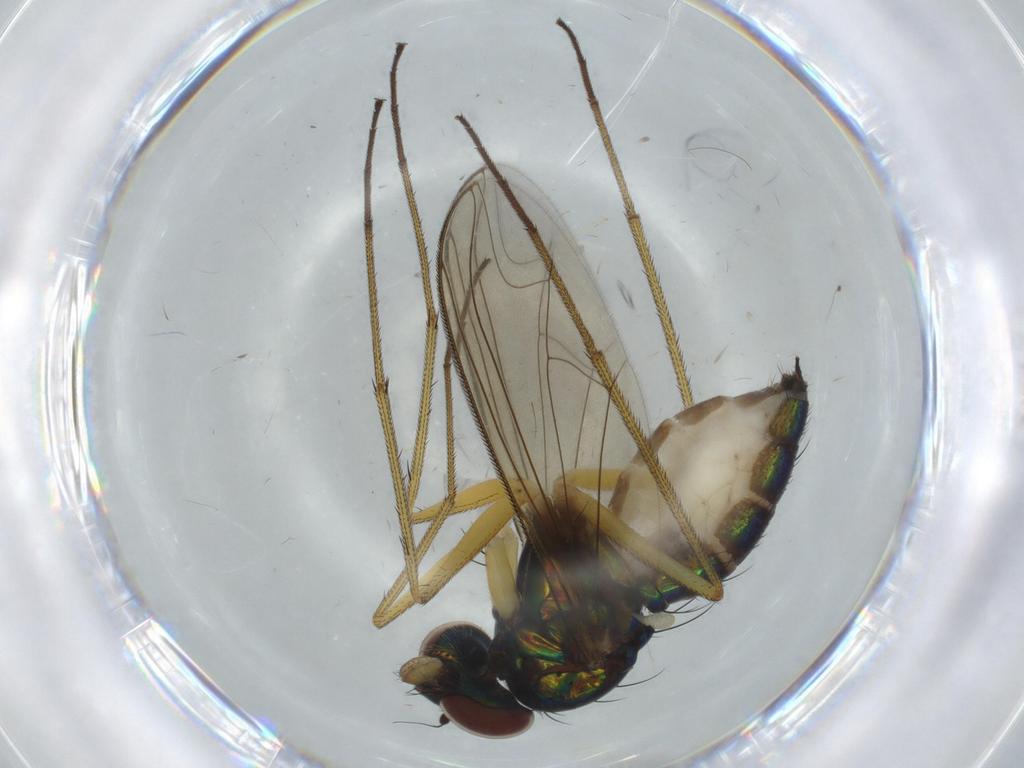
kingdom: Animalia
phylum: Arthropoda
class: Insecta
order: Diptera
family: Dolichopodidae
